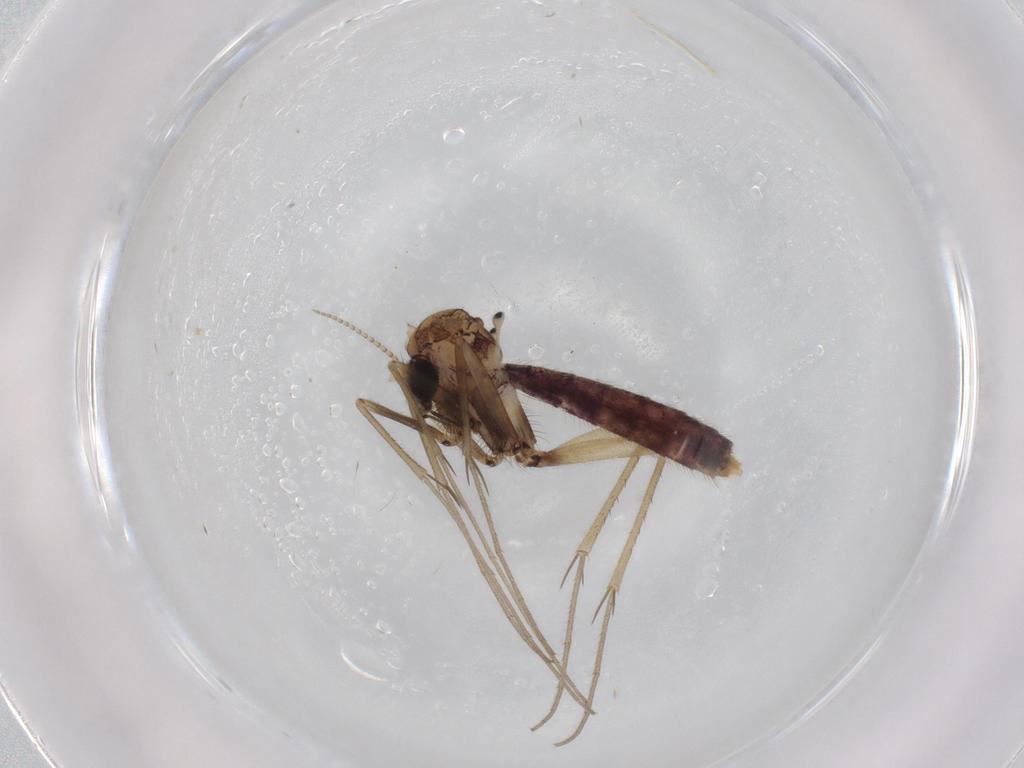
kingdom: Animalia
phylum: Arthropoda
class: Insecta
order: Diptera
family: Mycetophilidae
